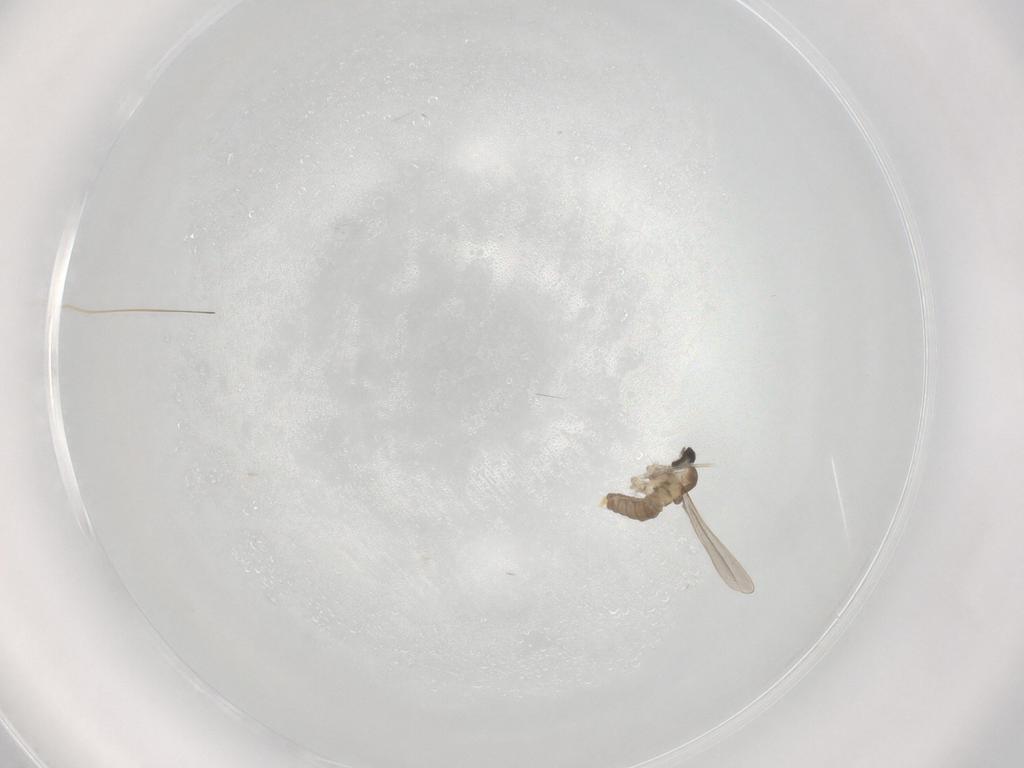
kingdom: Animalia
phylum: Arthropoda
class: Insecta
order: Diptera
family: Cecidomyiidae
